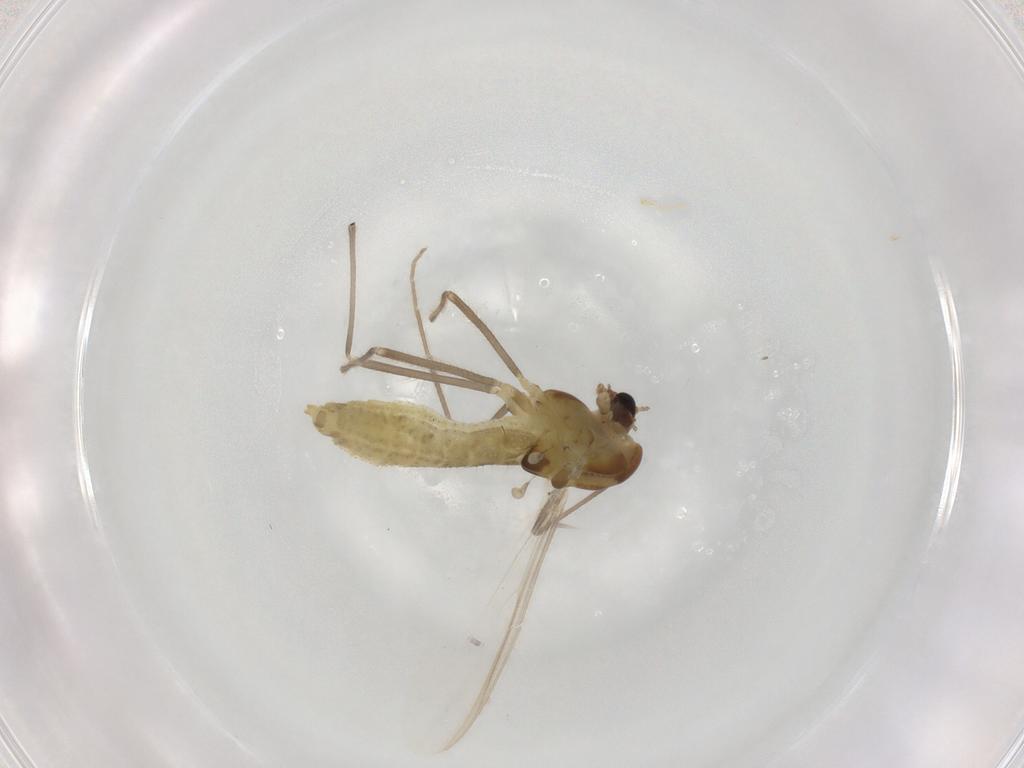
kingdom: Animalia
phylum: Arthropoda
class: Insecta
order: Diptera
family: Chironomidae
